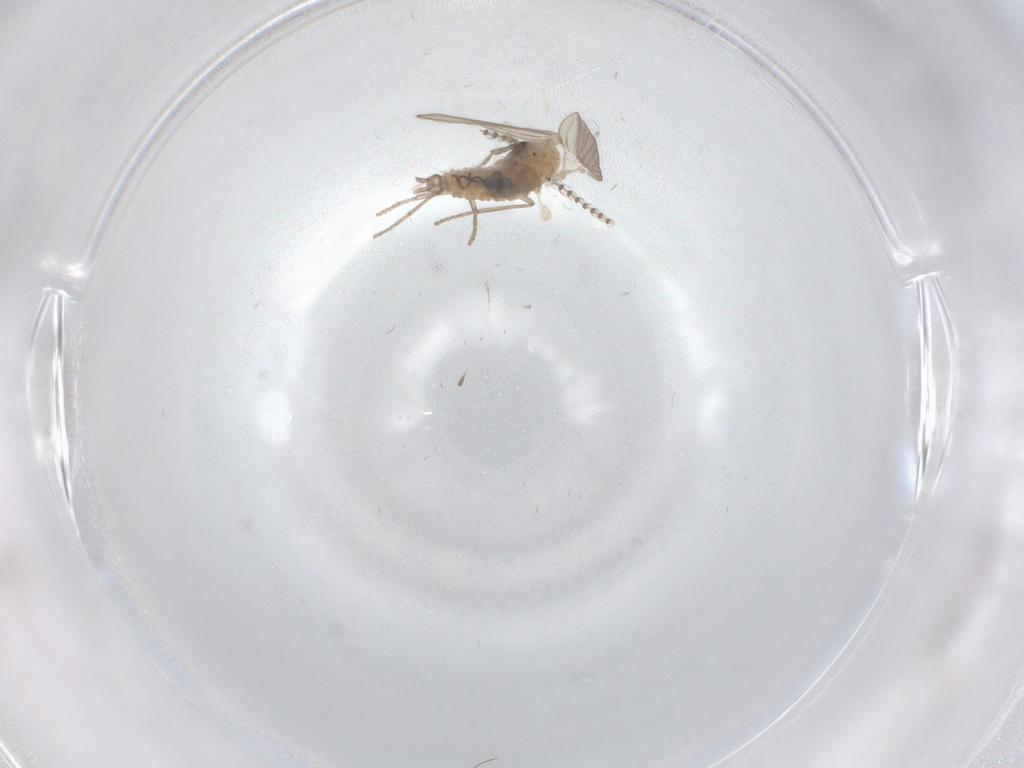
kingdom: Animalia
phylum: Arthropoda
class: Insecta
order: Diptera
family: Psychodidae
